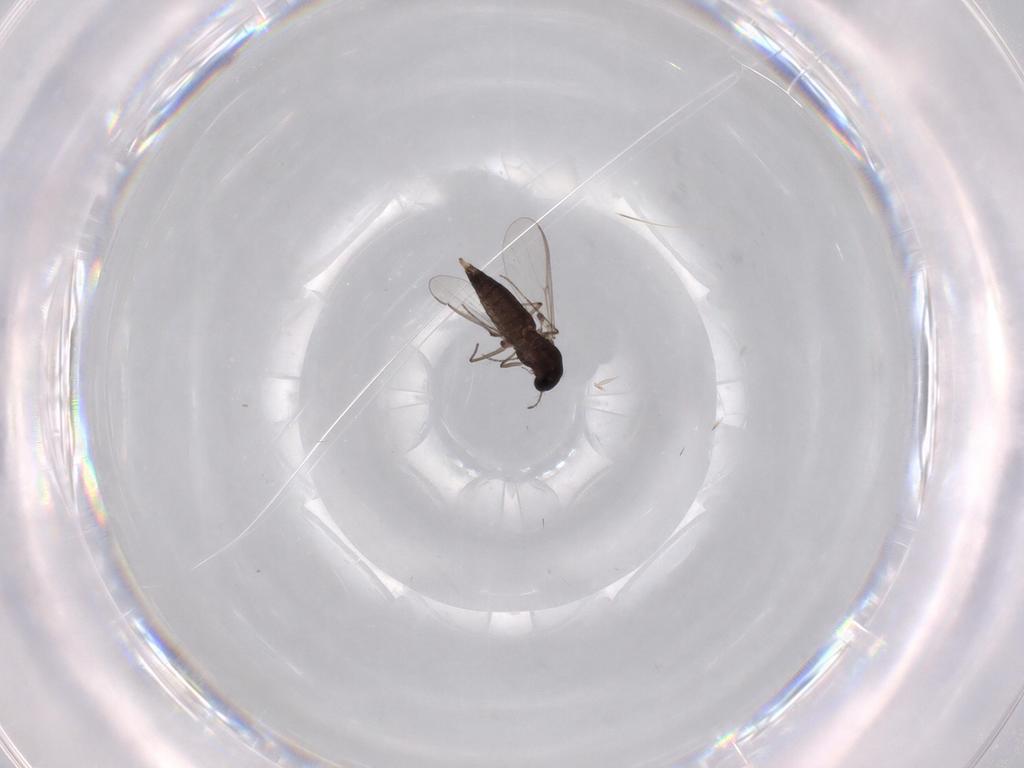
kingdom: Animalia
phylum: Arthropoda
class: Insecta
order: Diptera
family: Chironomidae
